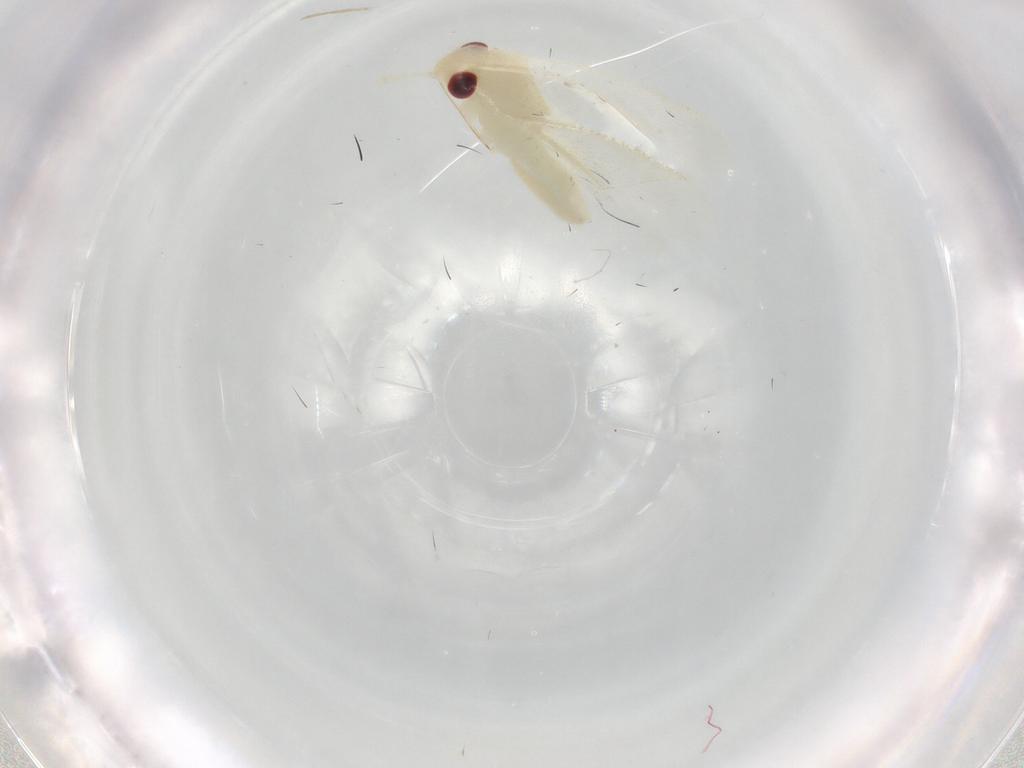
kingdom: Animalia
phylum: Arthropoda
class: Insecta
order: Hemiptera
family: Miridae
